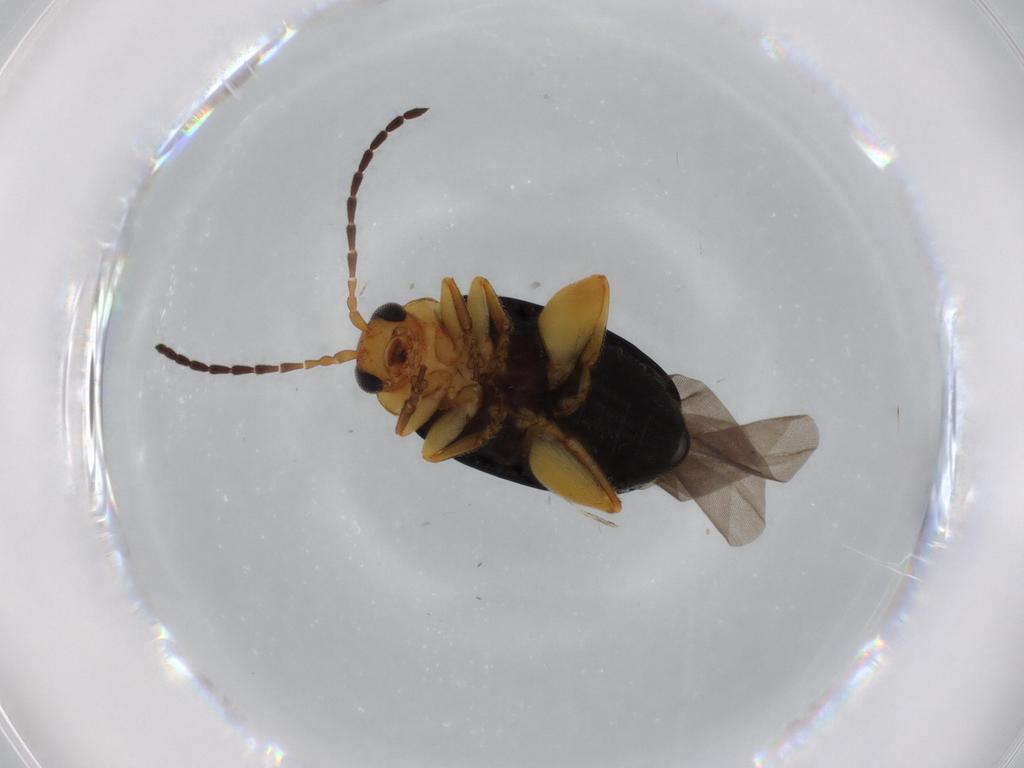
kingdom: Animalia
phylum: Arthropoda
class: Insecta
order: Coleoptera
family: Chrysomelidae
